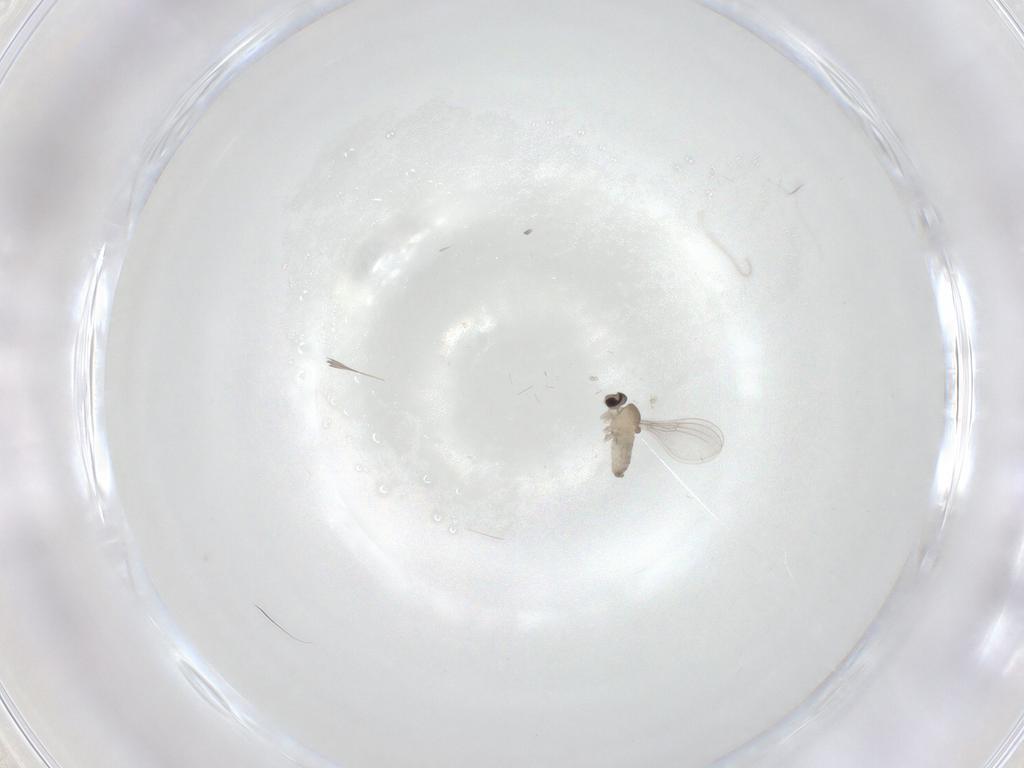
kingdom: Animalia
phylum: Arthropoda
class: Insecta
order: Diptera
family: Cecidomyiidae
